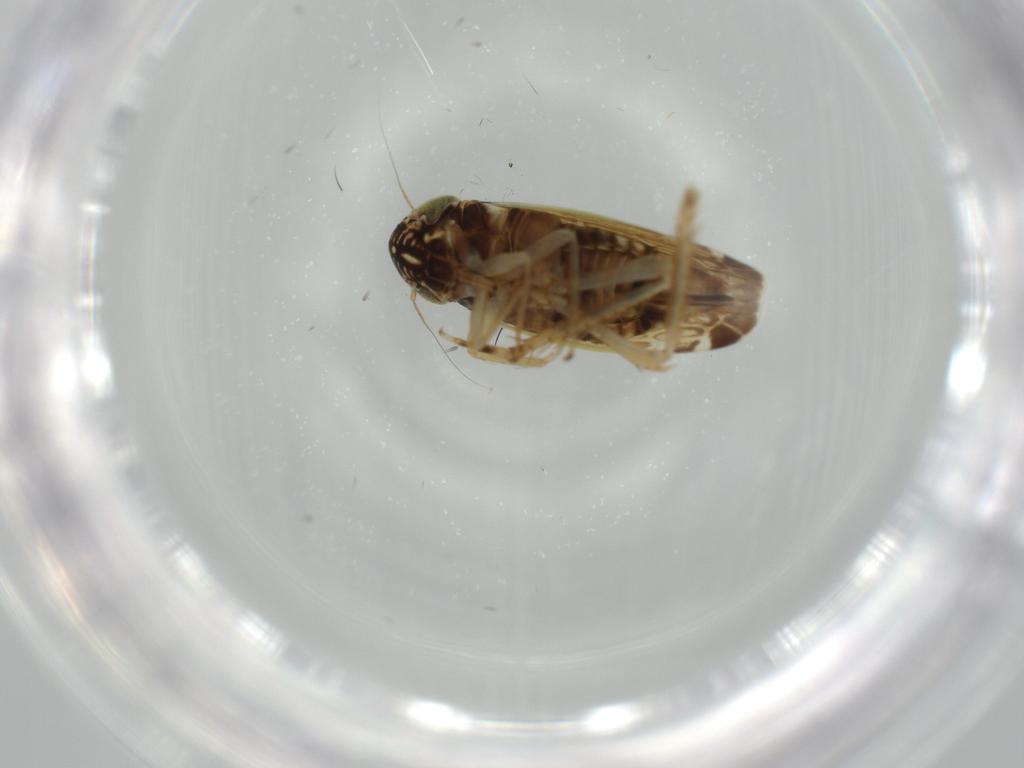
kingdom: Animalia
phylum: Arthropoda
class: Insecta
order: Hemiptera
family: Cicadellidae
